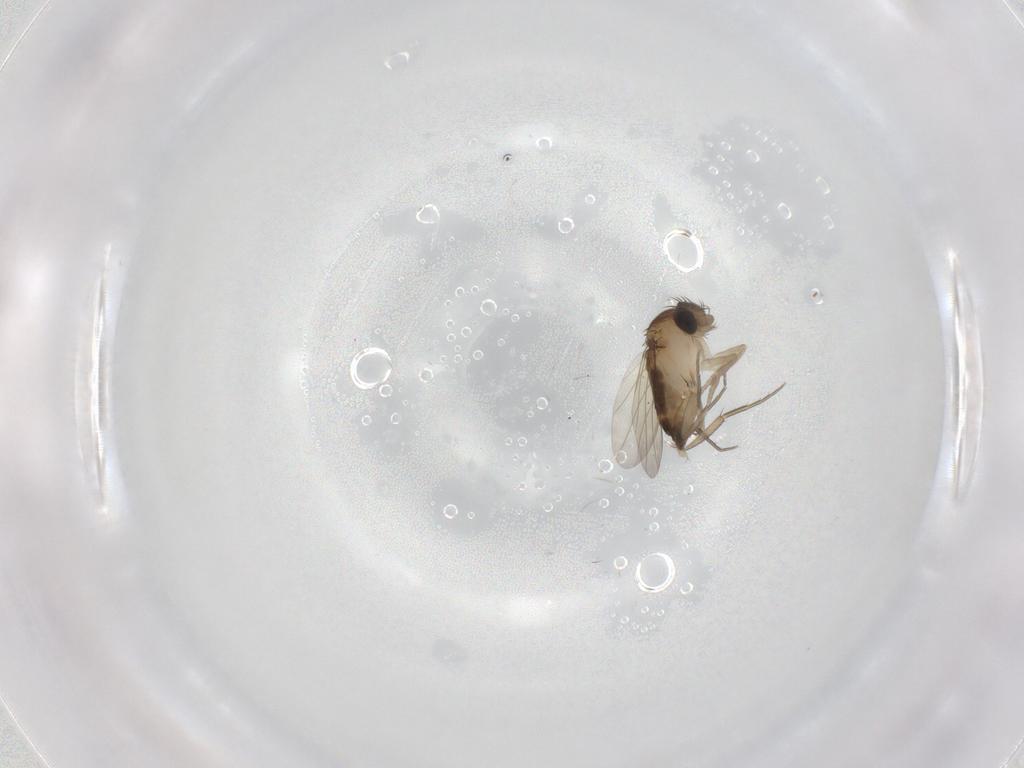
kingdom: Animalia
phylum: Arthropoda
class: Insecta
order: Diptera
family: Phoridae
